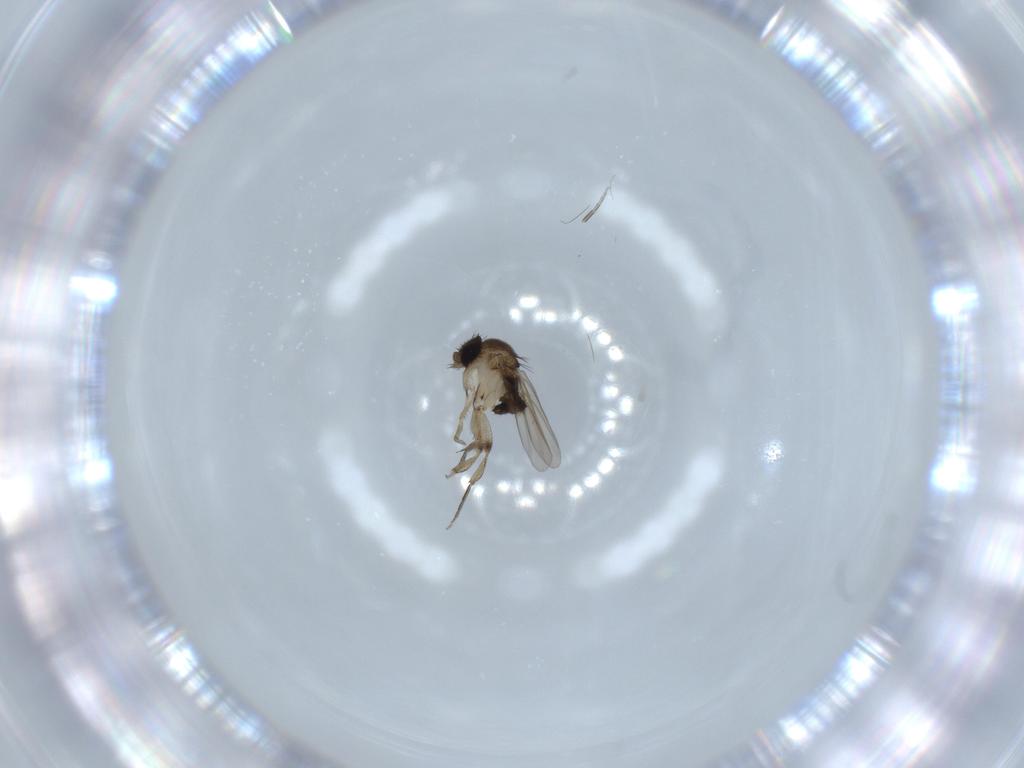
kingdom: Animalia
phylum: Arthropoda
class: Insecta
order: Diptera
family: Phoridae
